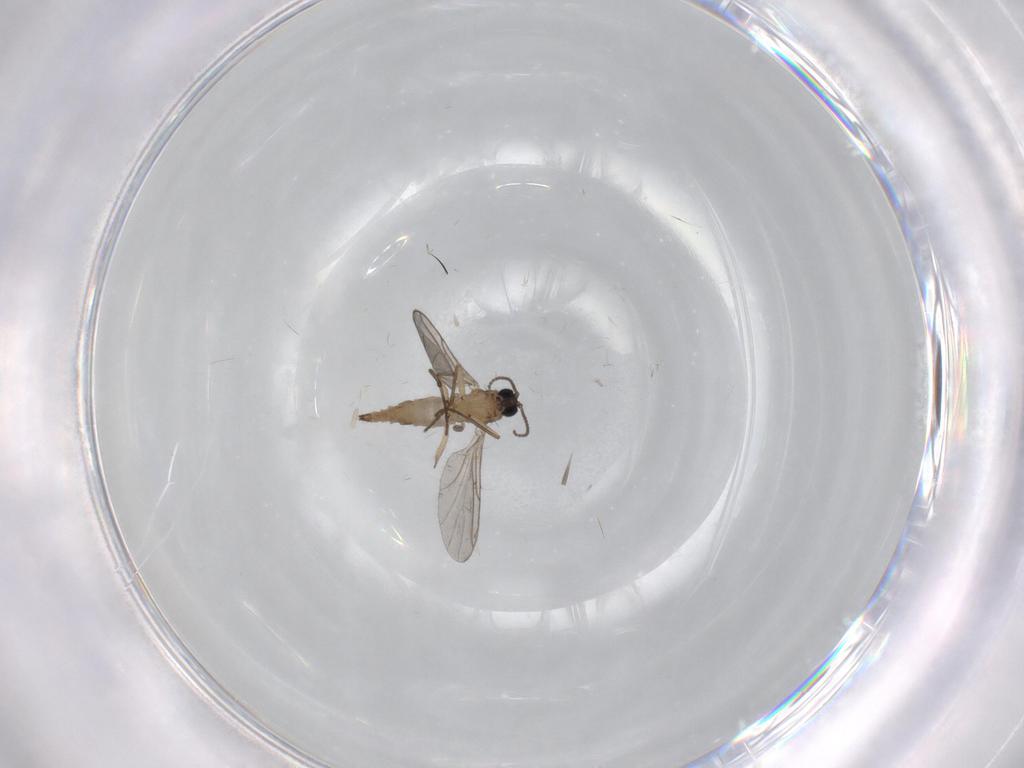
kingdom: Animalia
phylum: Arthropoda
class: Insecta
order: Diptera
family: Sciaridae
